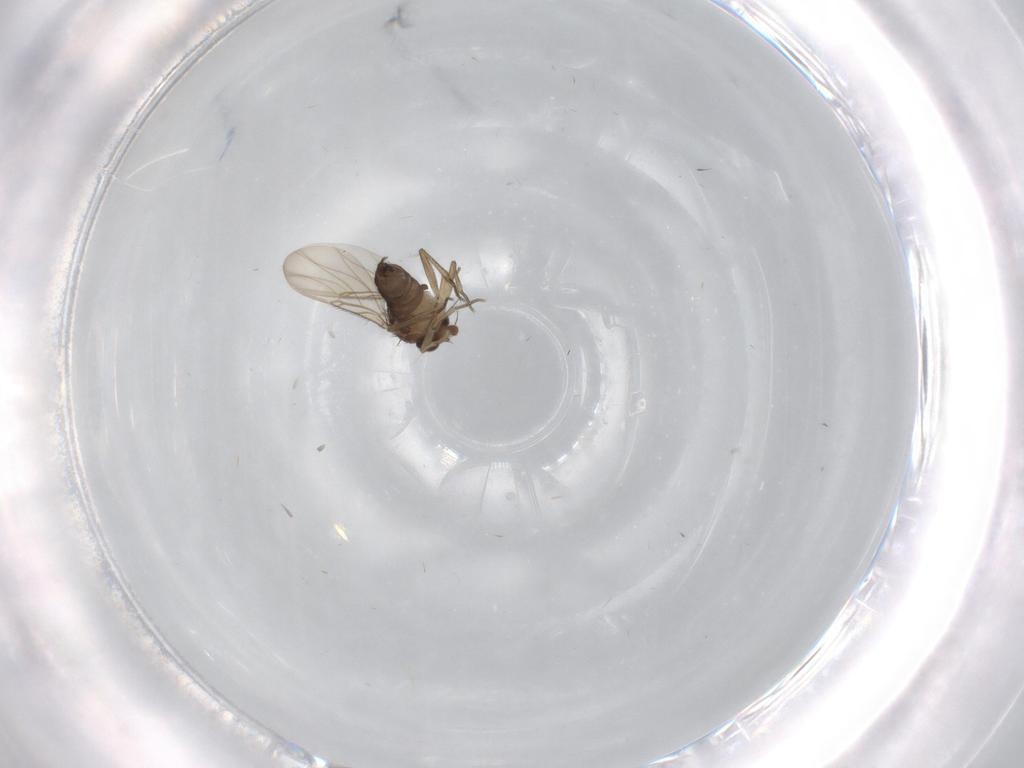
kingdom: Animalia
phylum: Arthropoda
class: Insecta
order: Diptera
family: Phoridae
